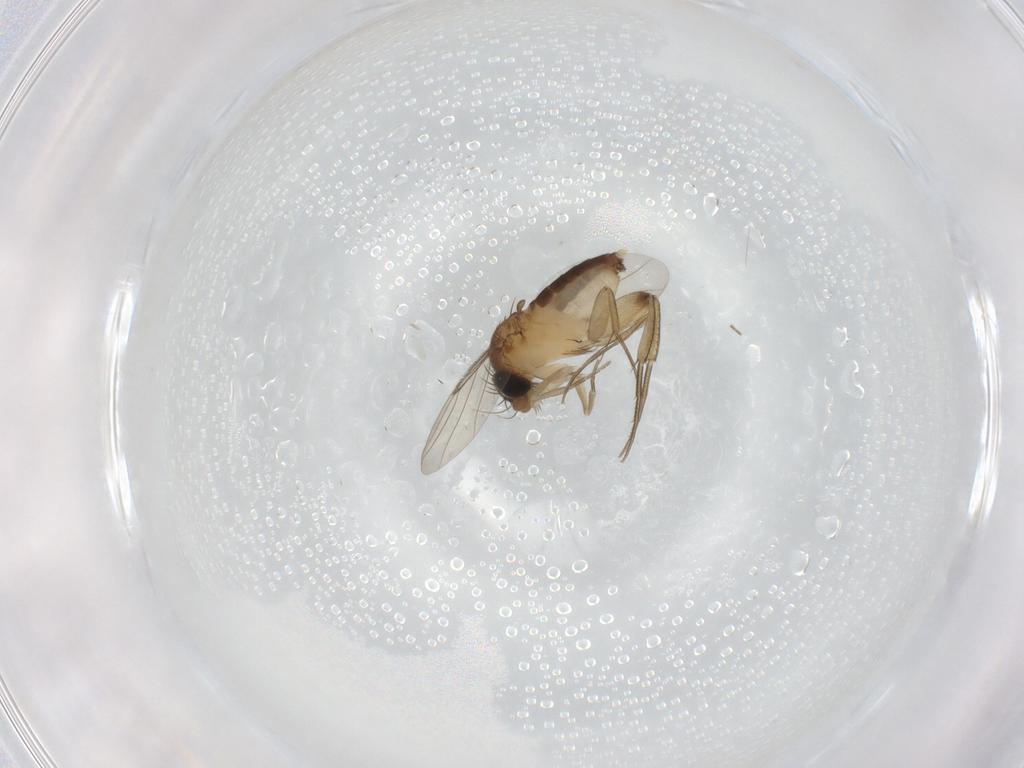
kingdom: Animalia
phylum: Arthropoda
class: Insecta
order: Diptera
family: Phoridae
